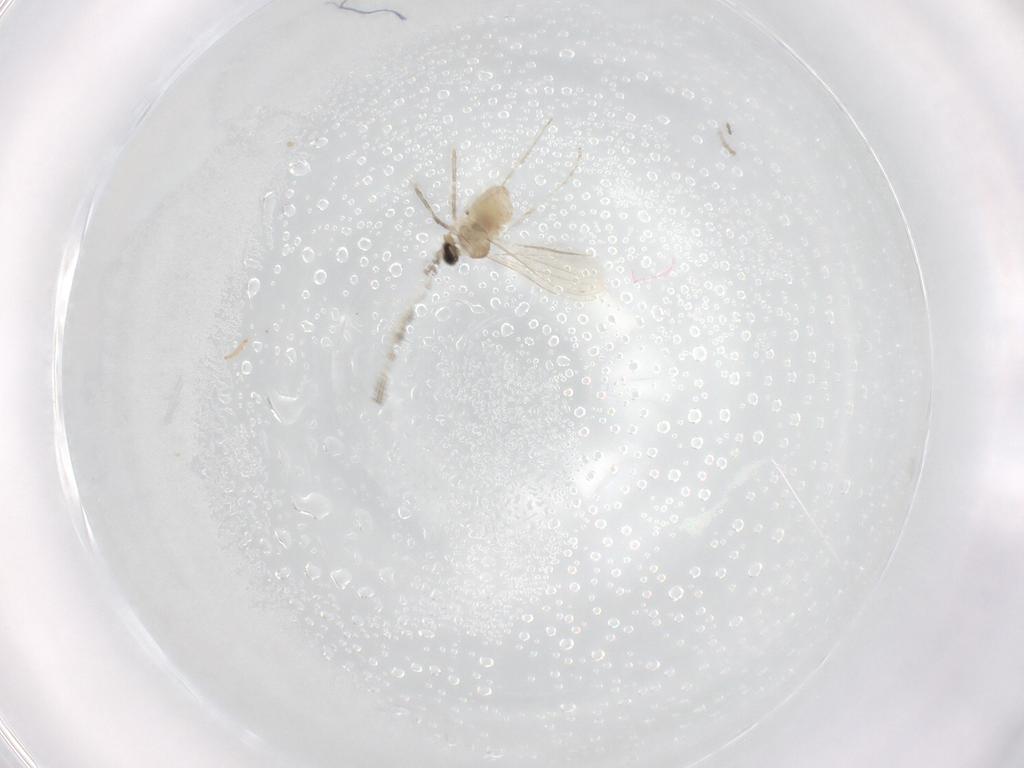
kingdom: Animalia
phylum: Arthropoda
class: Insecta
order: Diptera
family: Cecidomyiidae
